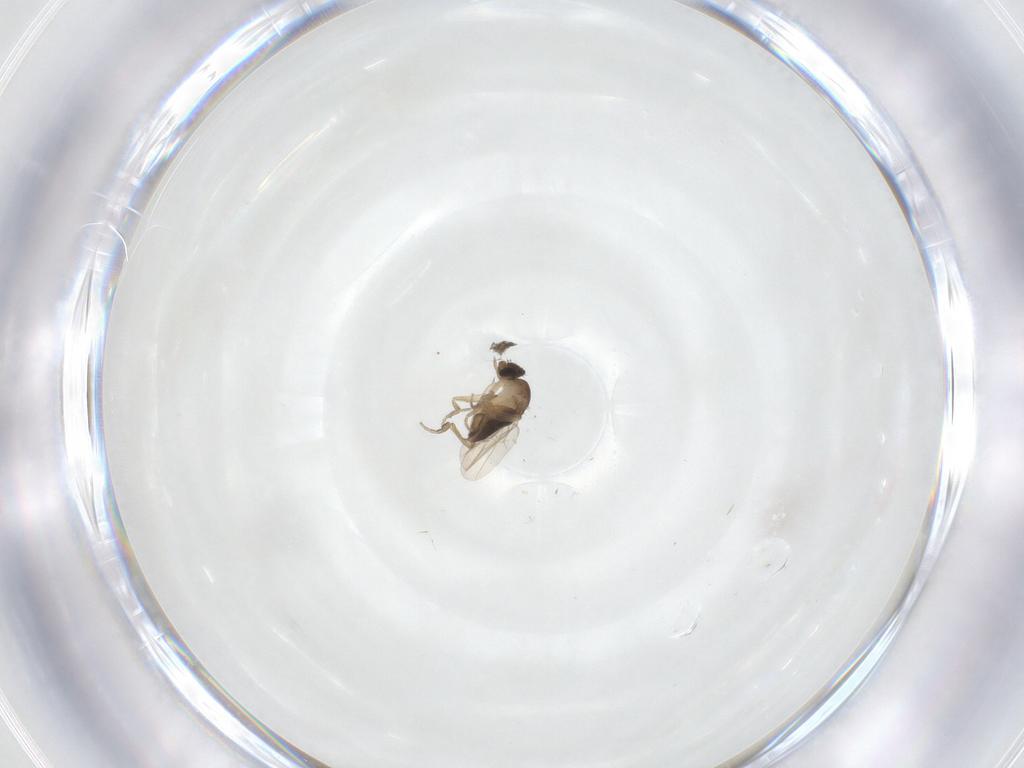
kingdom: Animalia
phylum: Arthropoda
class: Insecta
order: Diptera
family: Phoridae
